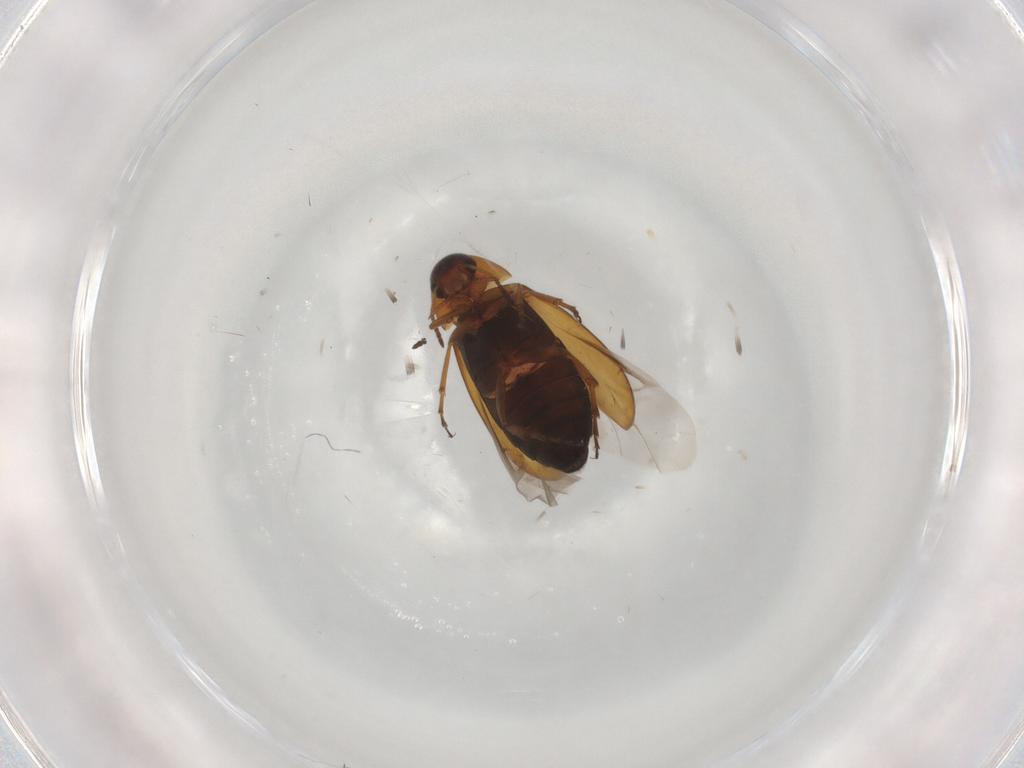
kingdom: Animalia
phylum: Arthropoda
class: Insecta
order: Coleoptera
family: Scraptiidae
